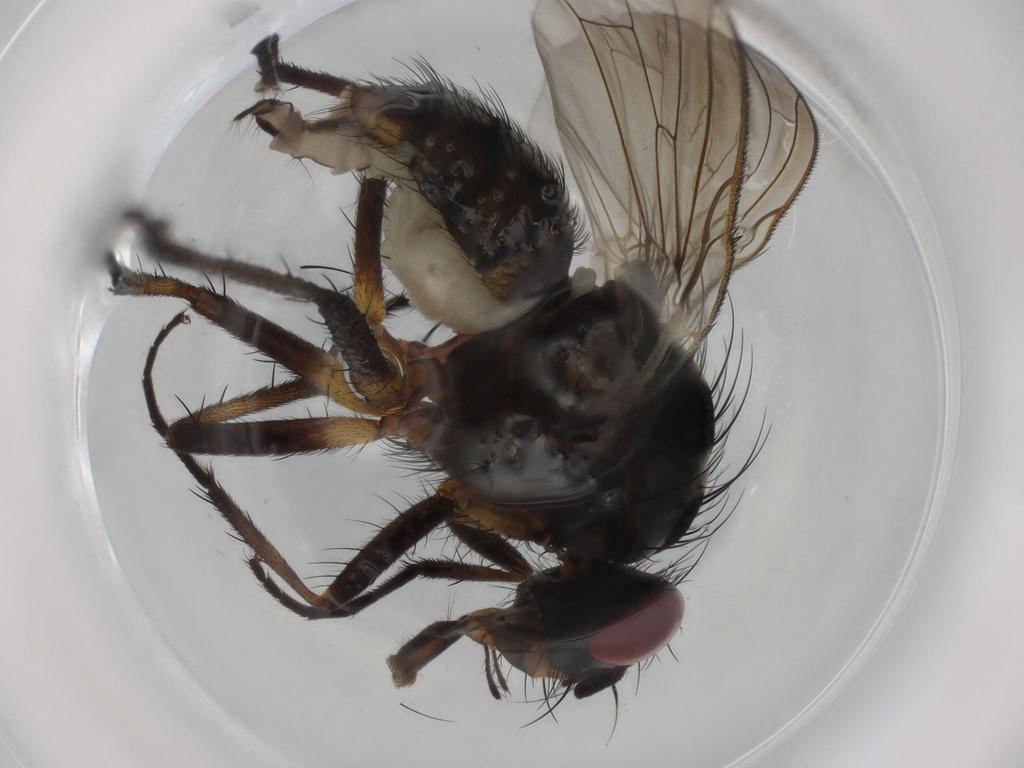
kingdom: Animalia
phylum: Arthropoda
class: Insecta
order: Diptera
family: Anthomyiidae
